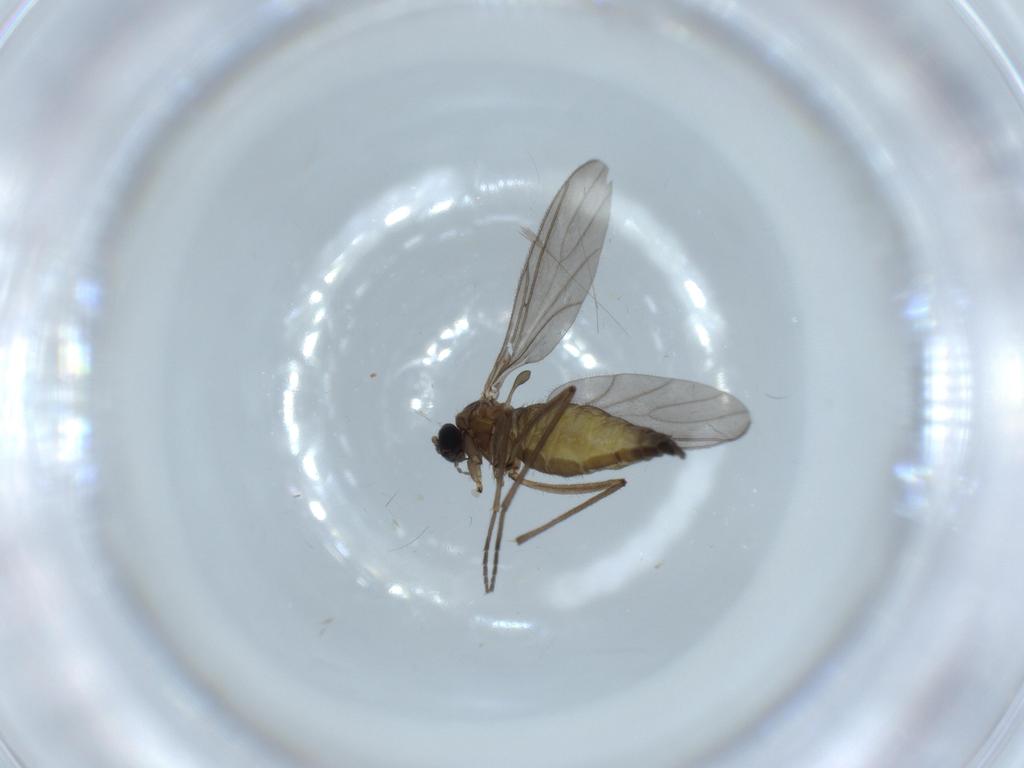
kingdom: Animalia
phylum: Arthropoda
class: Insecta
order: Diptera
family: Sciaridae
